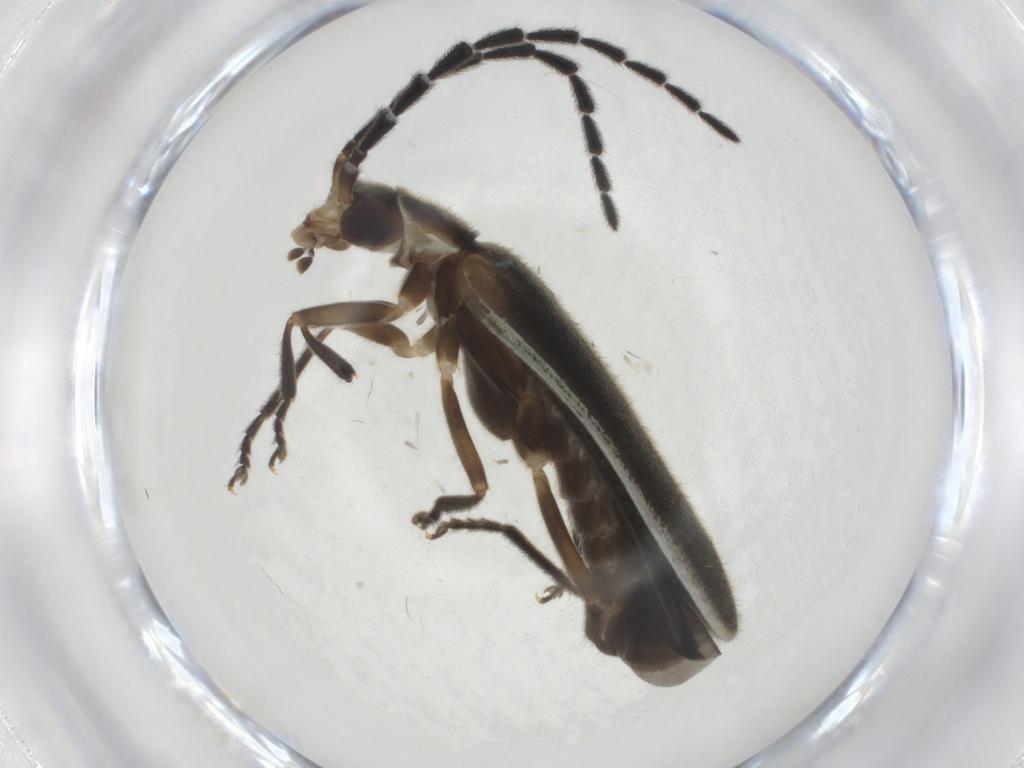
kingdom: Animalia
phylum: Arthropoda
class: Insecta
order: Coleoptera
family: Cantharidae
